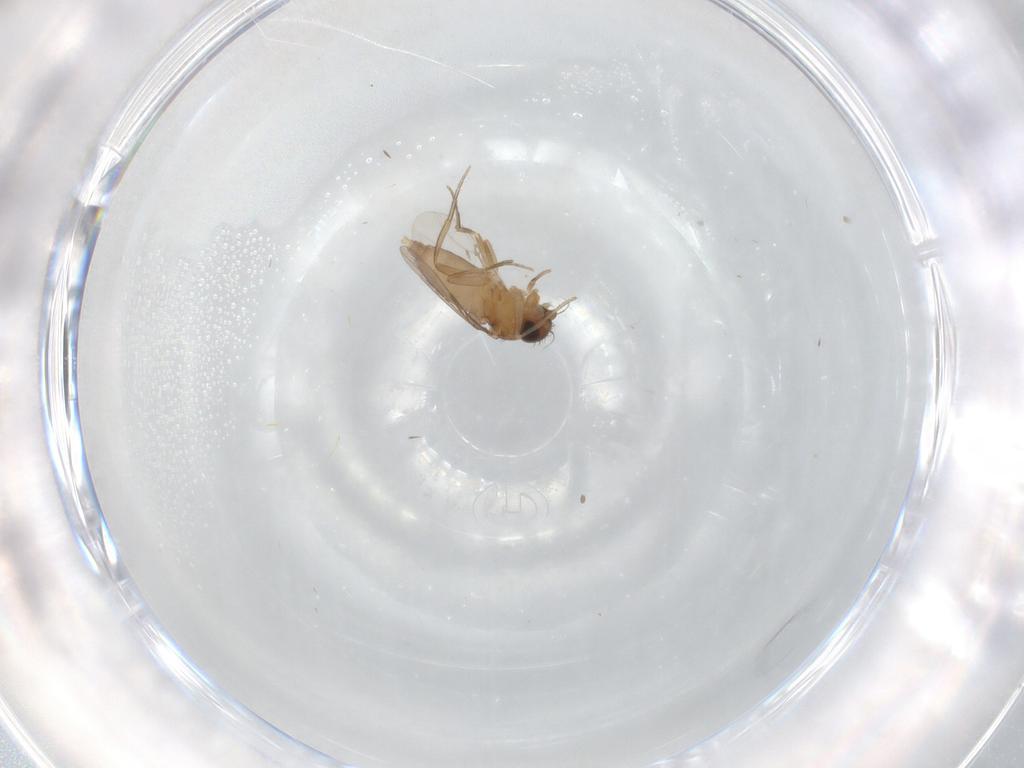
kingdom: Animalia
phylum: Arthropoda
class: Insecta
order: Diptera
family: Phoridae
